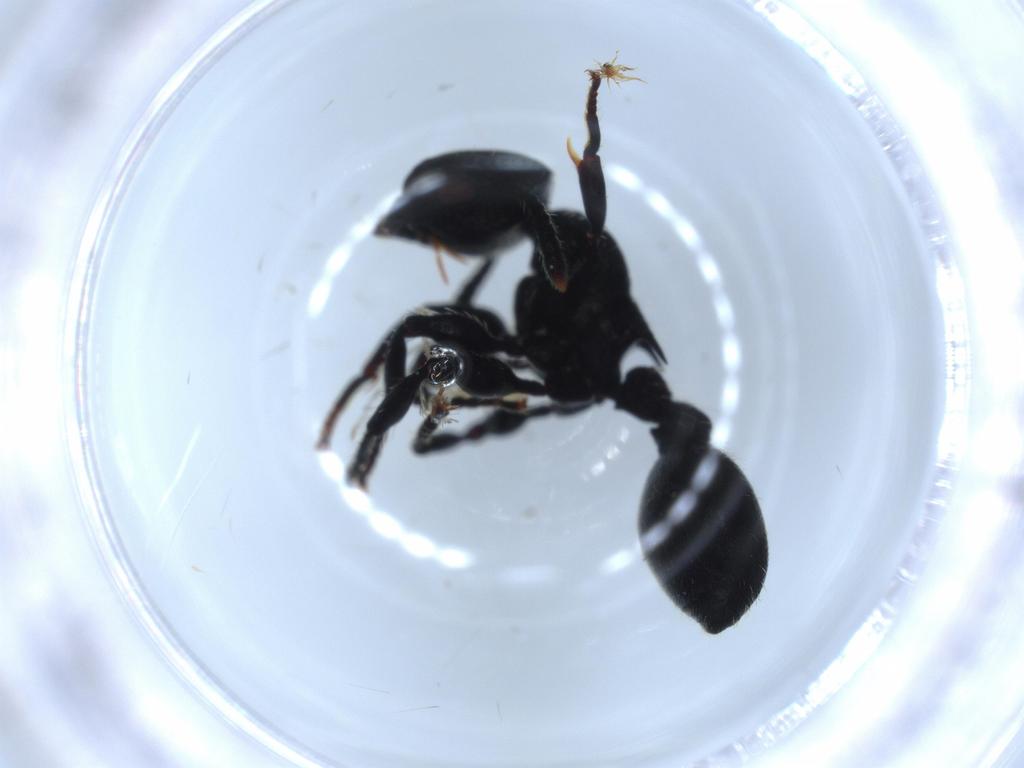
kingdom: Animalia
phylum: Arthropoda
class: Insecta
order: Hymenoptera
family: Formicidae
